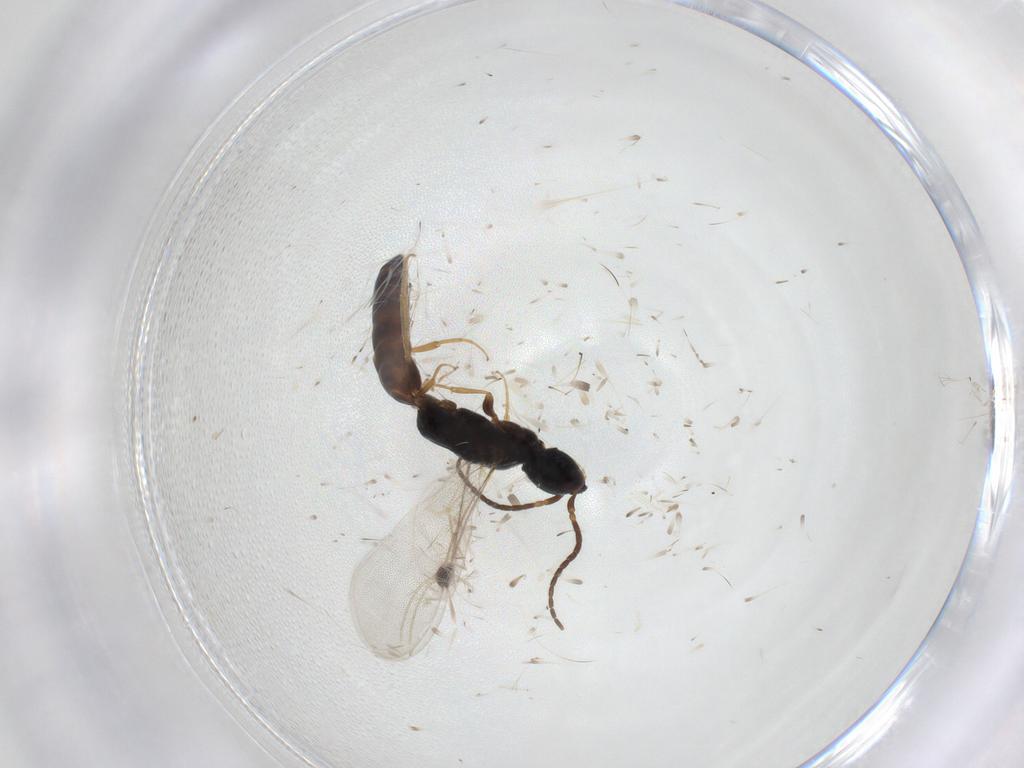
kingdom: Animalia
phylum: Arthropoda
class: Insecta
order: Hymenoptera
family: Bethylidae
